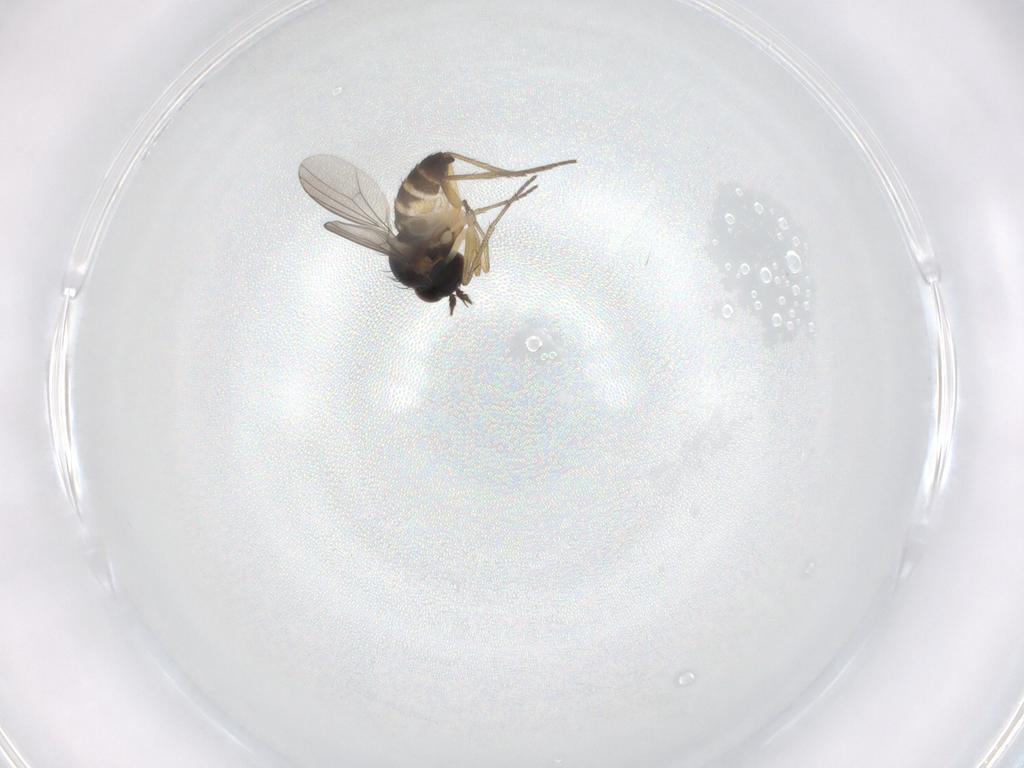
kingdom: Animalia
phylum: Arthropoda
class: Insecta
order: Diptera
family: Dolichopodidae
